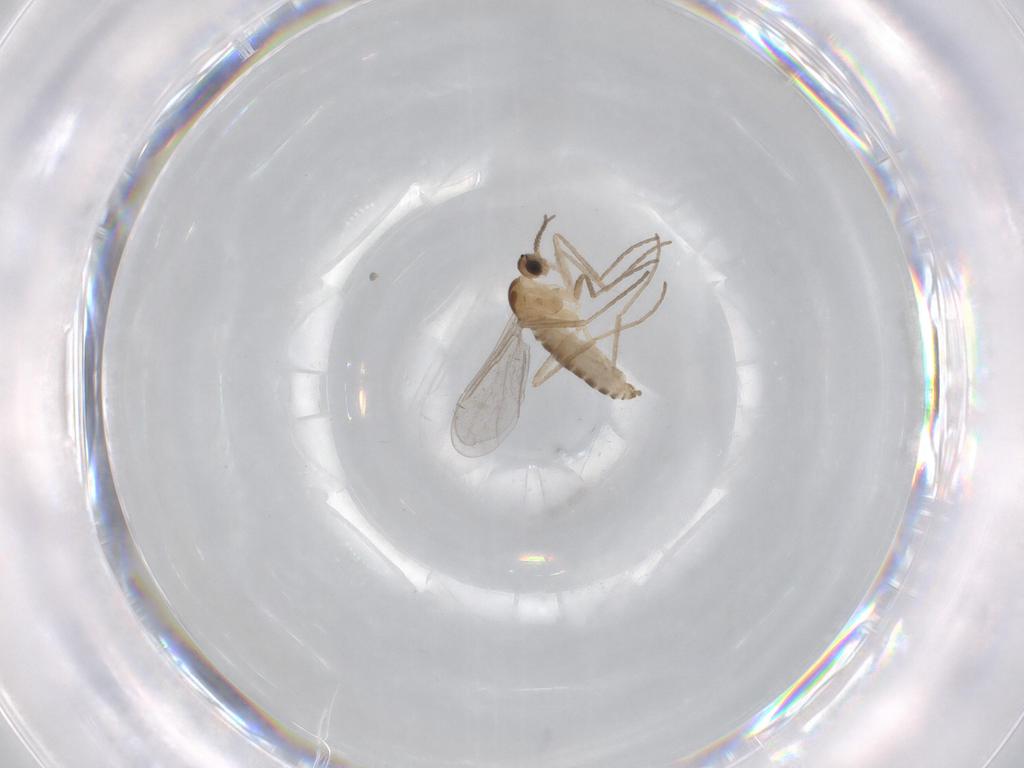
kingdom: Animalia
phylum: Arthropoda
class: Insecta
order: Diptera
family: Cecidomyiidae
